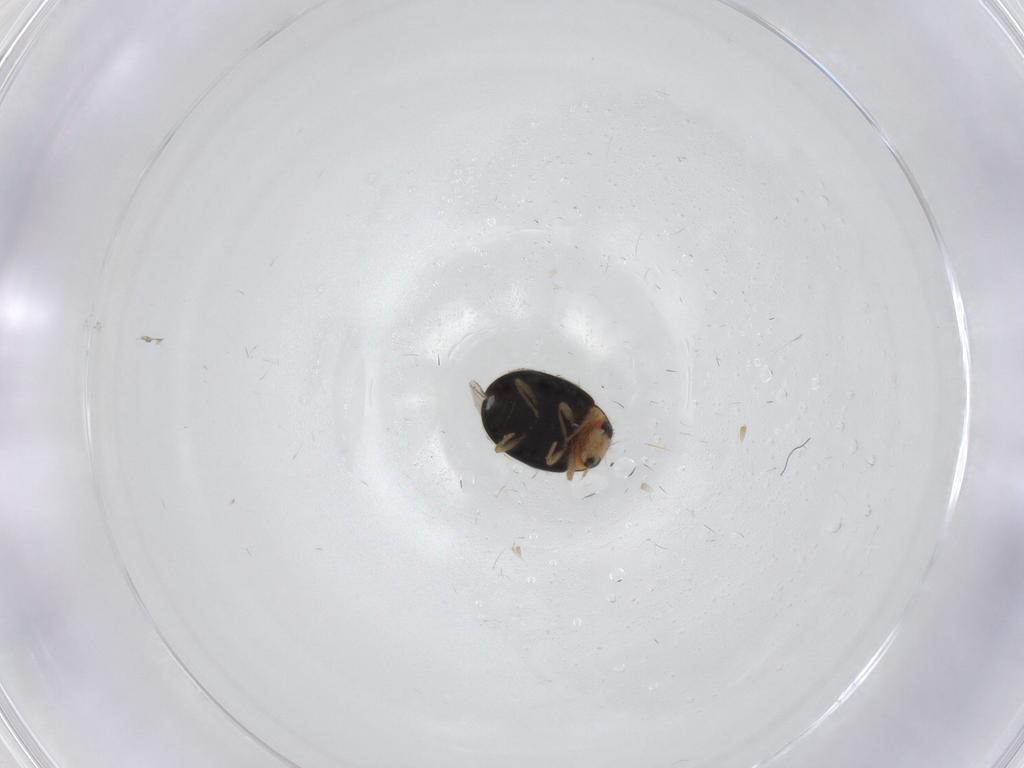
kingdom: Animalia
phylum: Arthropoda
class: Insecta
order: Coleoptera
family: Coccinellidae
